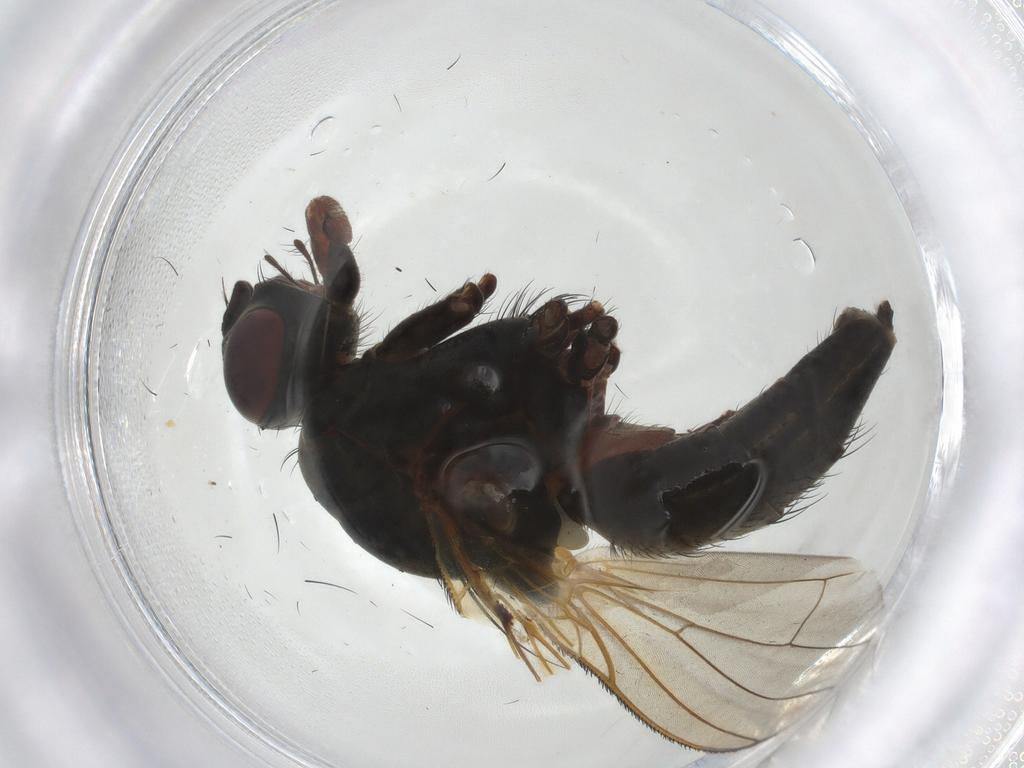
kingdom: Animalia
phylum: Arthropoda
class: Insecta
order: Diptera
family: Anthomyiidae
